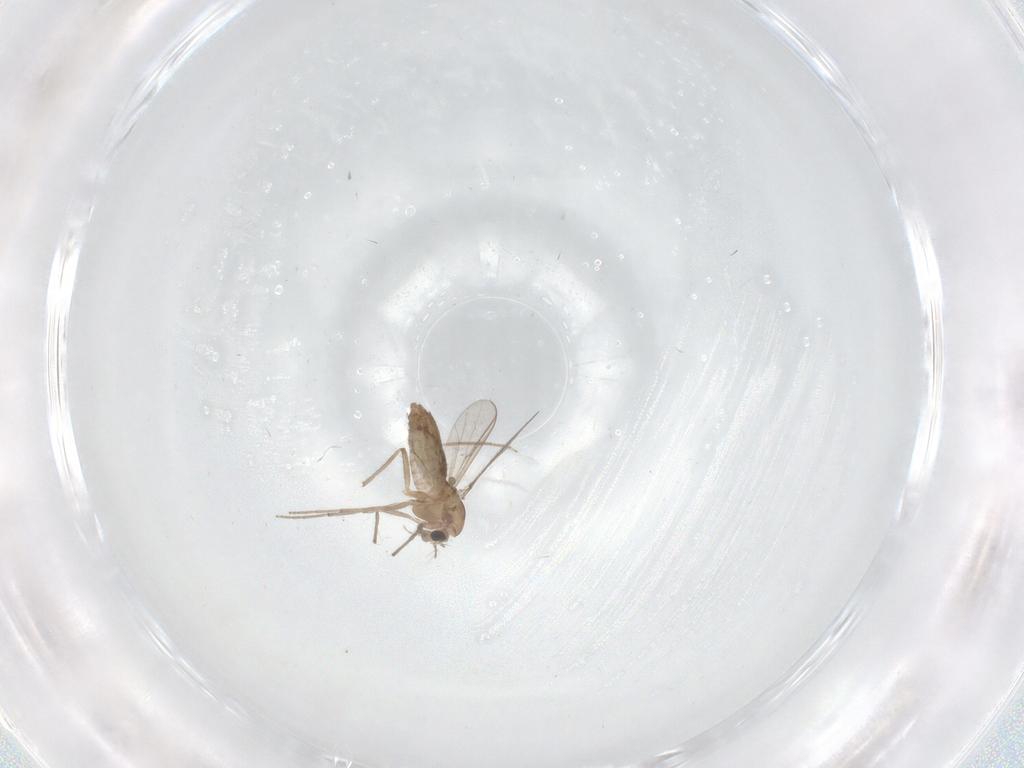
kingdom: Animalia
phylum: Arthropoda
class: Insecta
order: Diptera
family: Chironomidae
